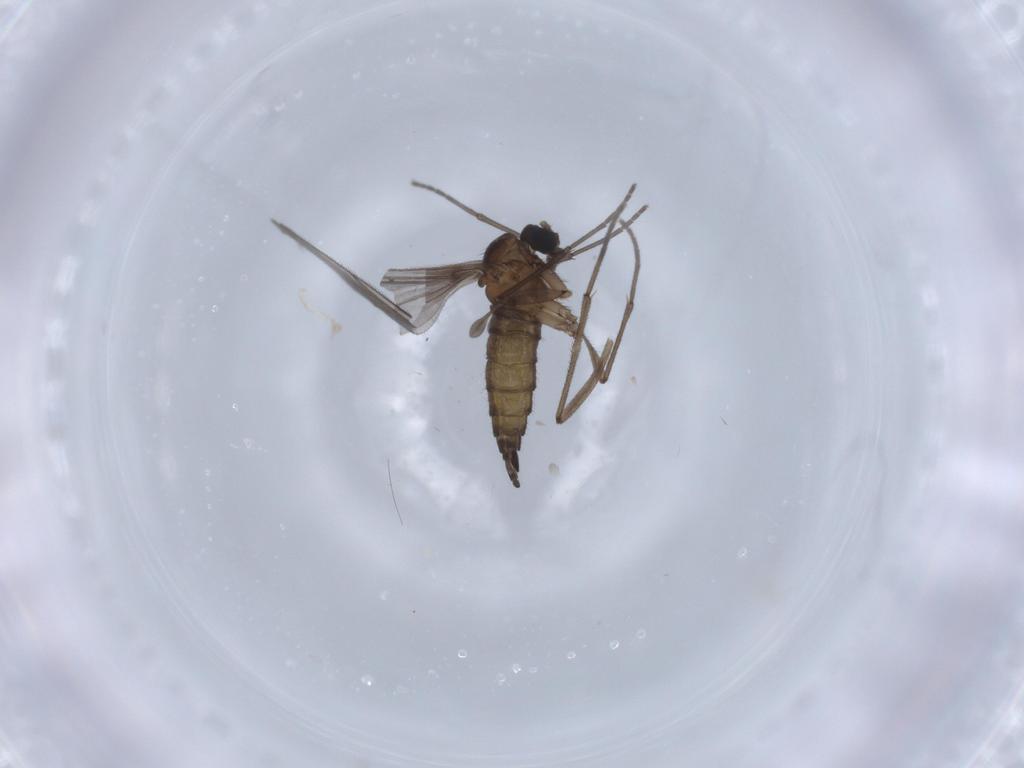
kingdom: Animalia
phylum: Arthropoda
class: Insecta
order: Diptera
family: Sciaridae
